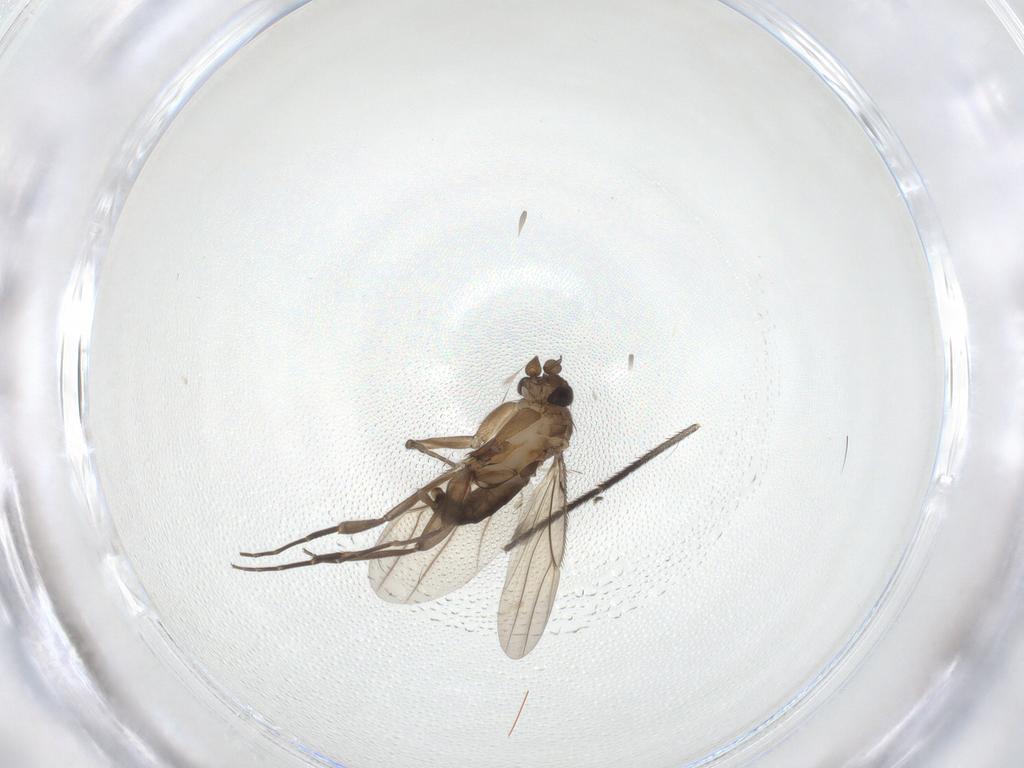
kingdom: Animalia
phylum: Arthropoda
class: Insecta
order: Diptera
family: Phoridae
